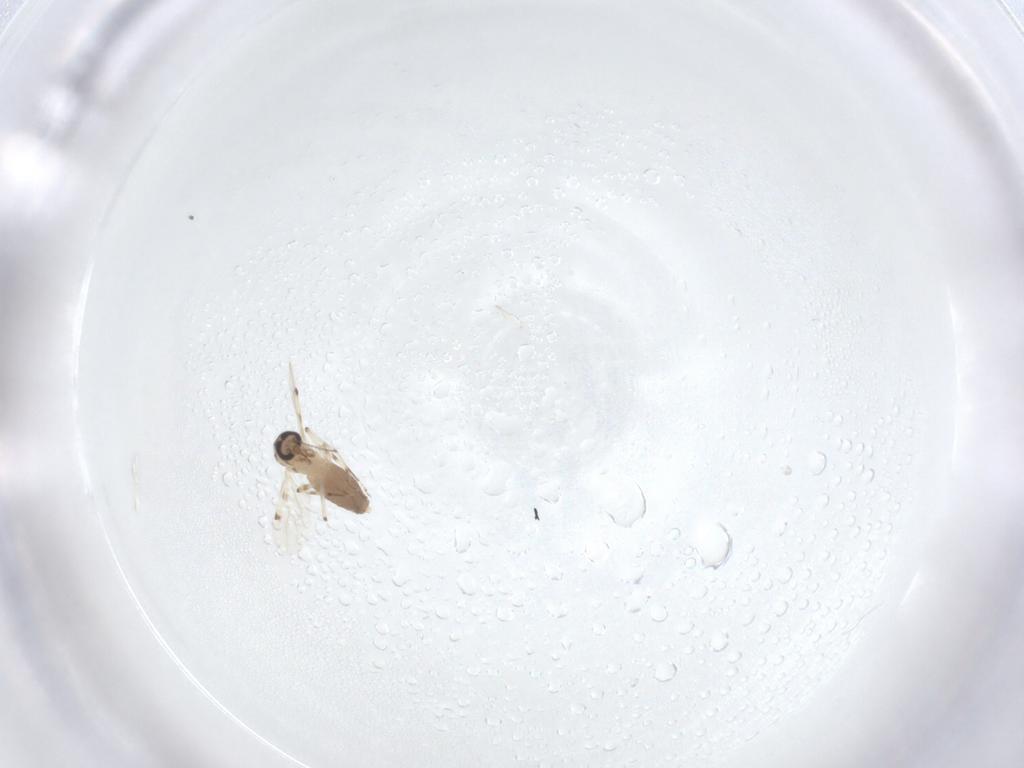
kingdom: Animalia
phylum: Arthropoda
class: Insecta
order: Diptera
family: Ceratopogonidae
